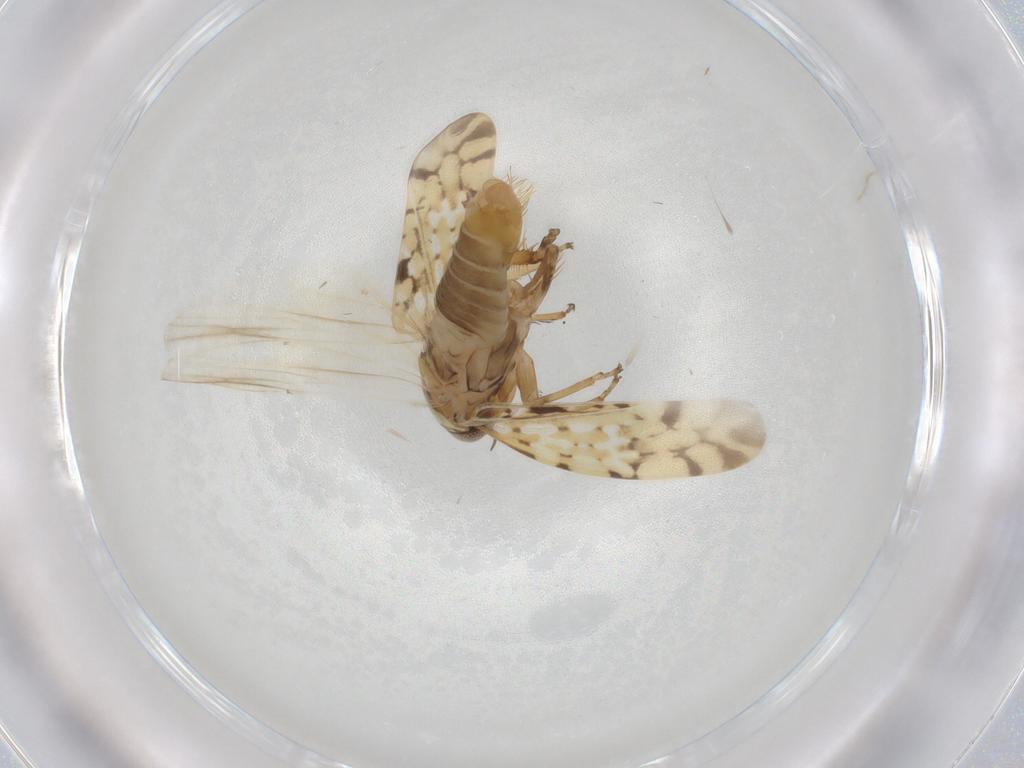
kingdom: Animalia
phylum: Arthropoda
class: Insecta
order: Hemiptera
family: Cicadellidae
